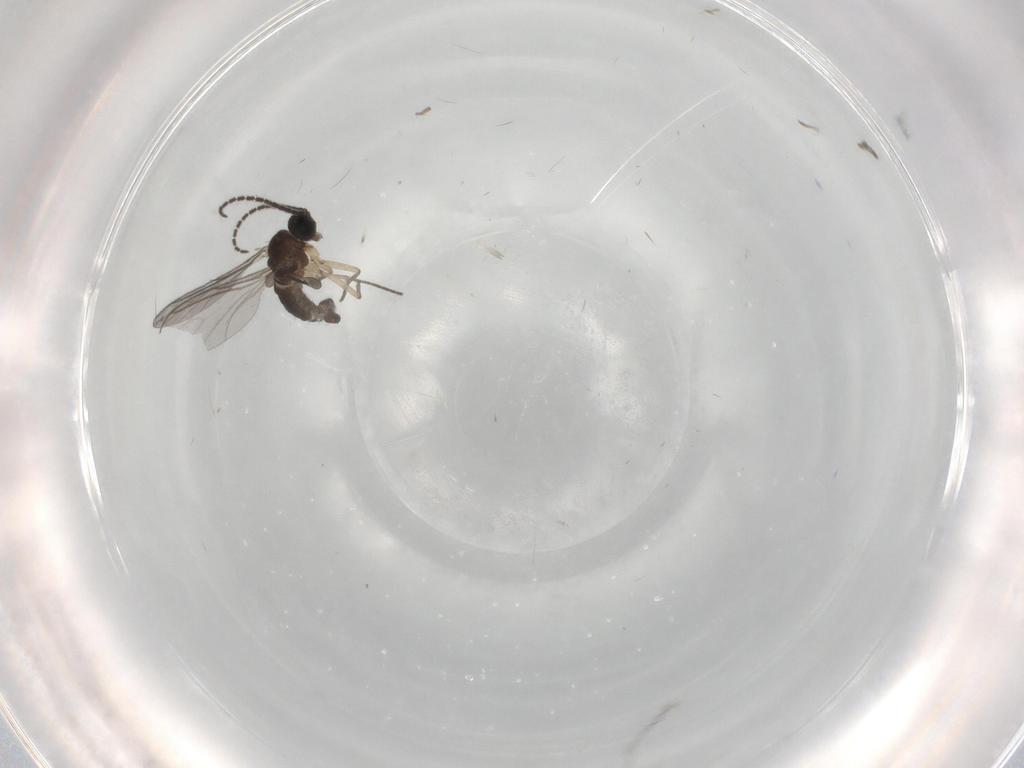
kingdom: Animalia
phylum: Arthropoda
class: Insecta
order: Diptera
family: Sciaridae
